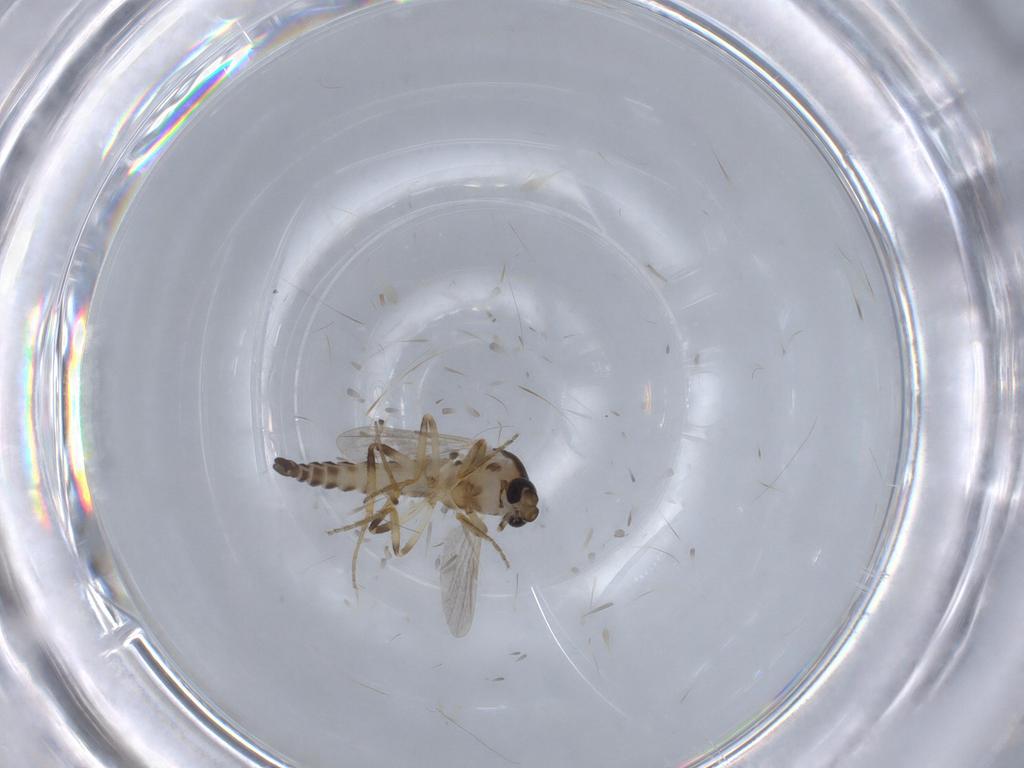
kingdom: Animalia
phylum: Arthropoda
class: Insecta
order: Diptera
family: Ceratopogonidae
